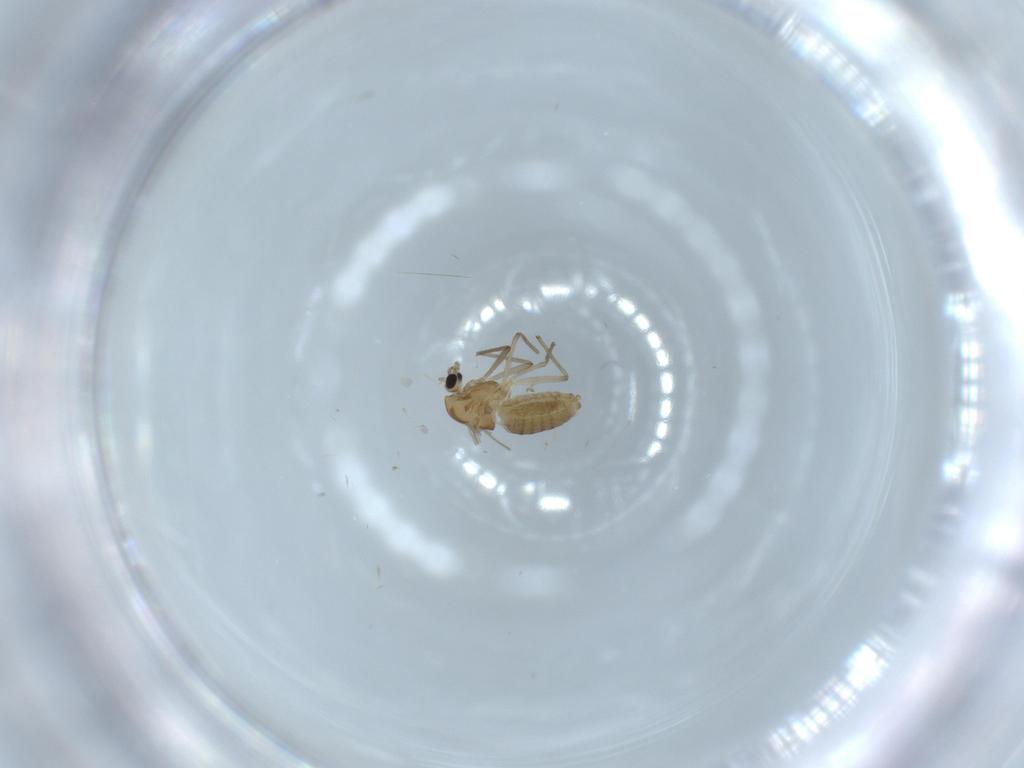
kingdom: Animalia
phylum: Arthropoda
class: Insecta
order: Diptera
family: Chironomidae
